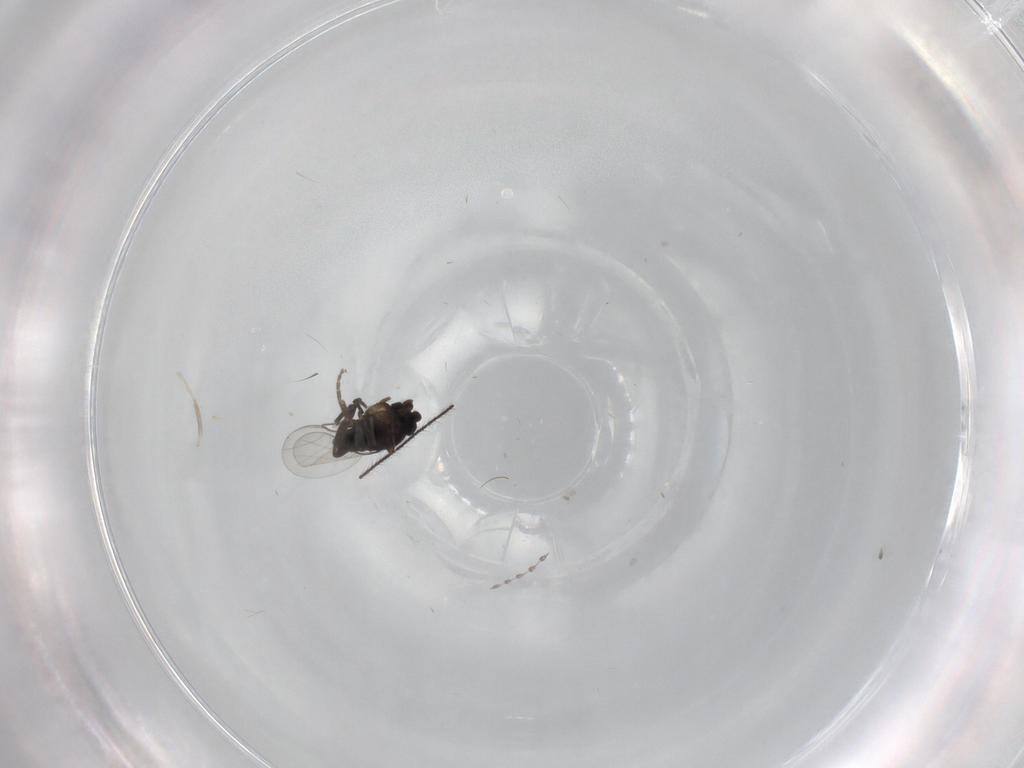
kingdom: Animalia
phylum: Arthropoda
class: Insecta
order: Diptera
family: Phoridae
